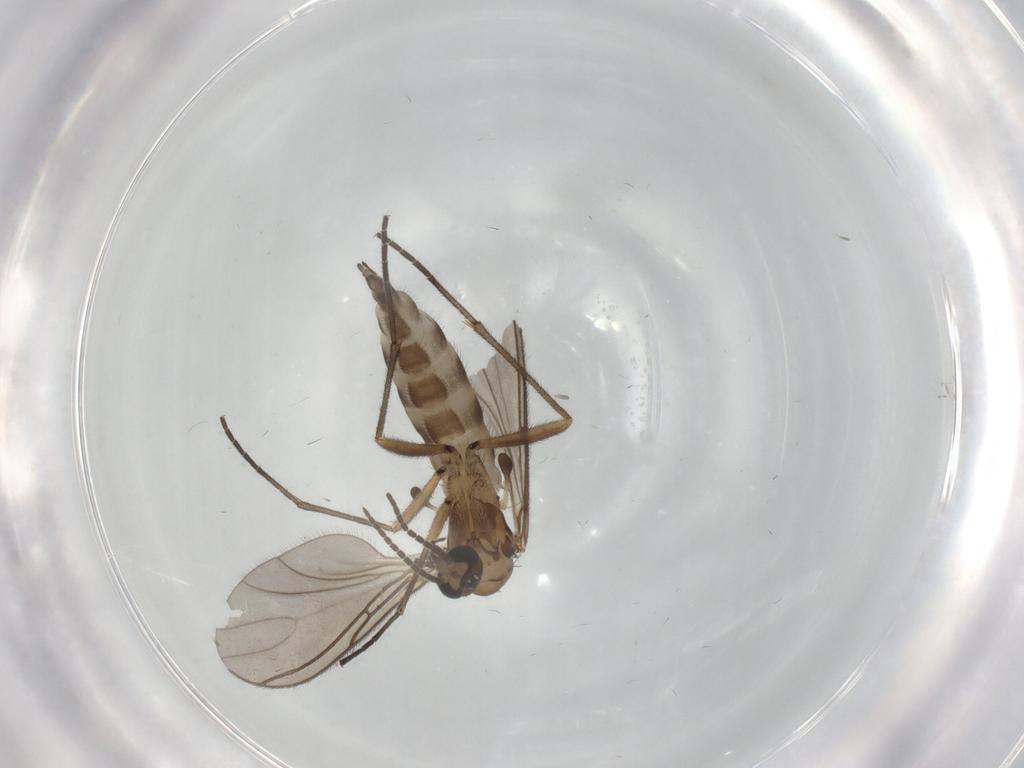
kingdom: Animalia
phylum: Arthropoda
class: Insecta
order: Diptera
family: Sciaridae
